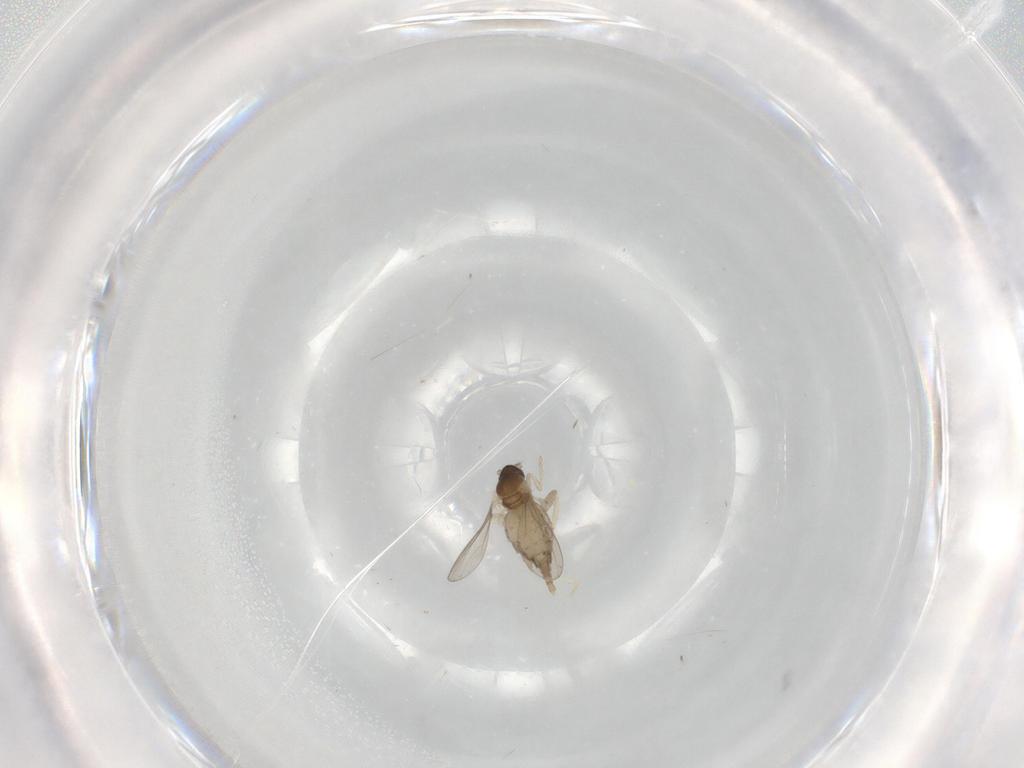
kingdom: Animalia
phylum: Arthropoda
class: Insecta
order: Diptera
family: Cecidomyiidae
